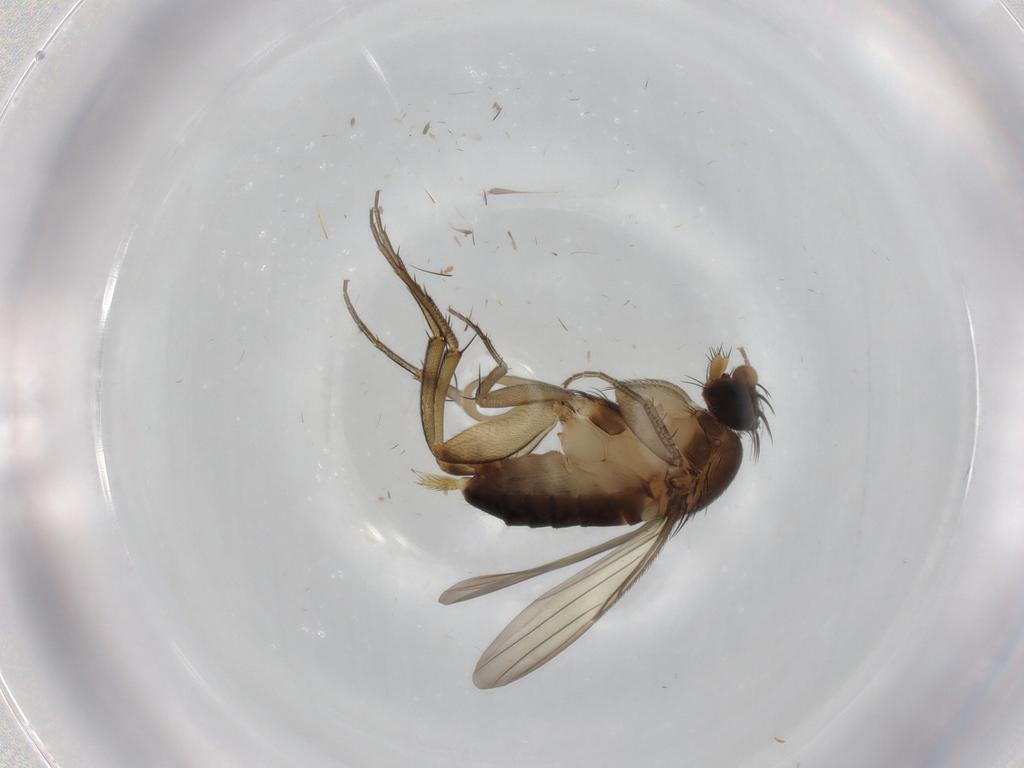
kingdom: Animalia
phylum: Arthropoda
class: Insecta
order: Diptera
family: Phoridae
